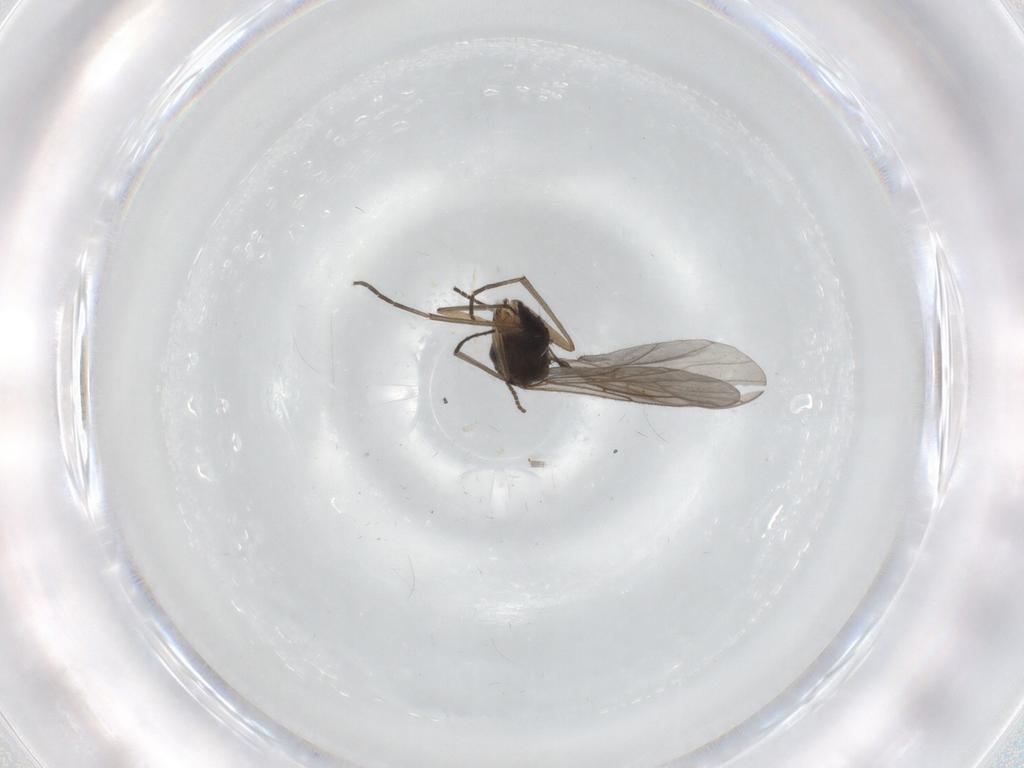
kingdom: Animalia
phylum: Arthropoda
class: Insecta
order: Diptera
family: Sciaridae
